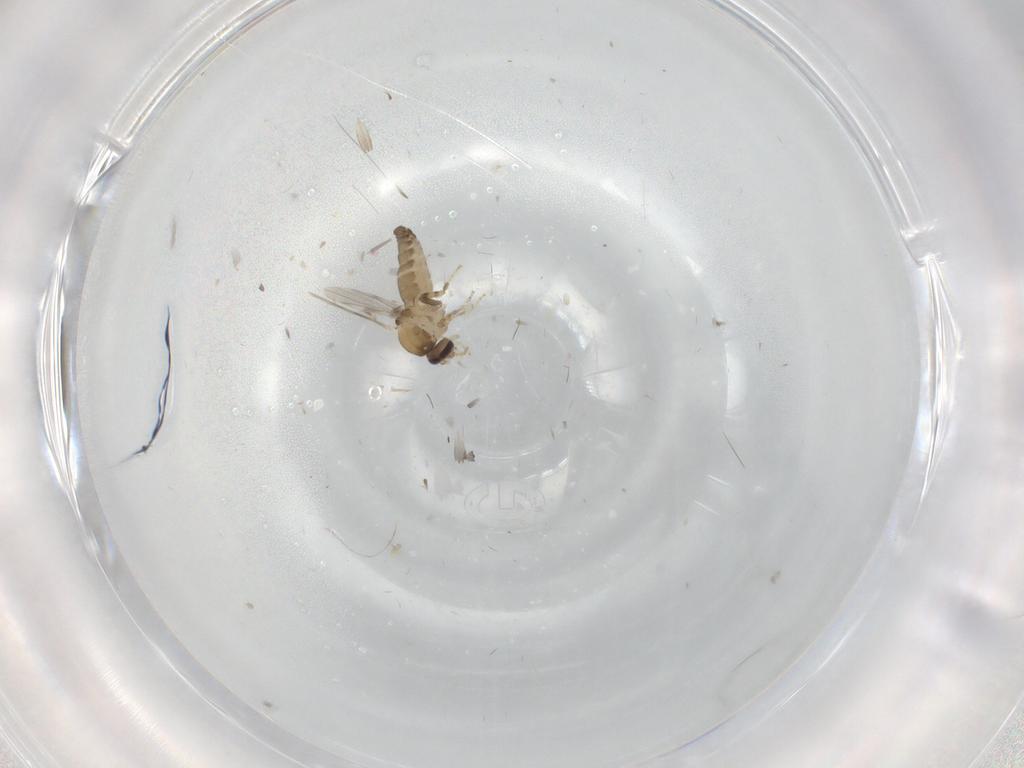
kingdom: Animalia
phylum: Arthropoda
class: Insecta
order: Diptera
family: Ceratopogonidae
